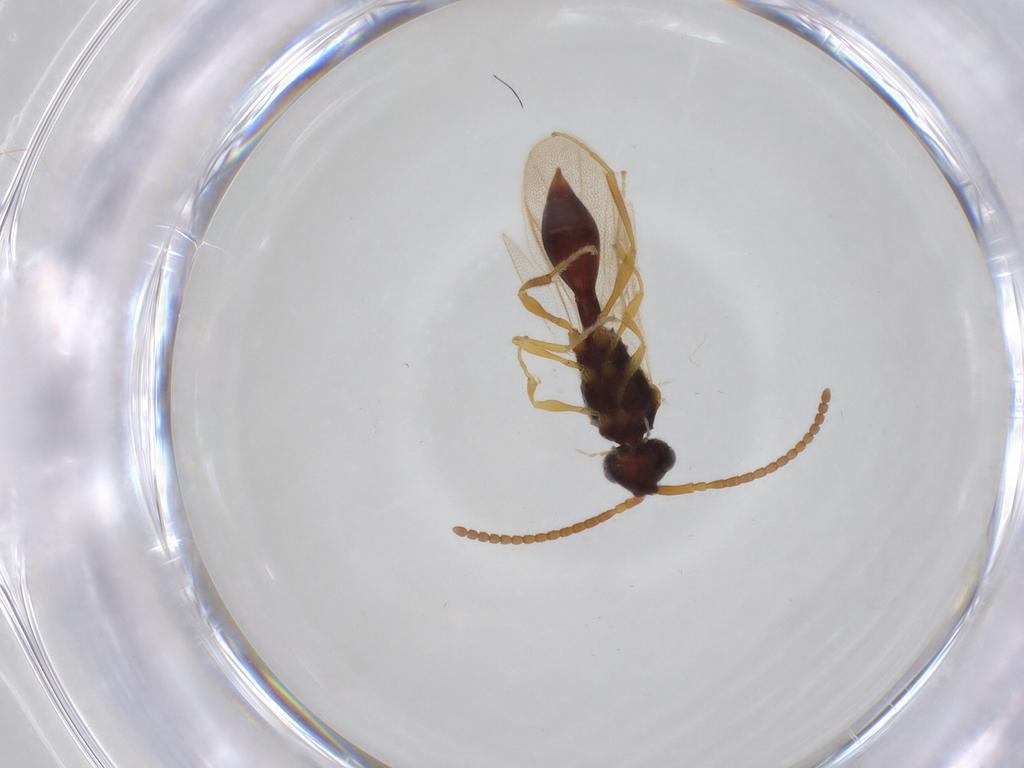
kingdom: Animalia
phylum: Arthropoda
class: Insecta
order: Hymenoptera
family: Diapriidae
